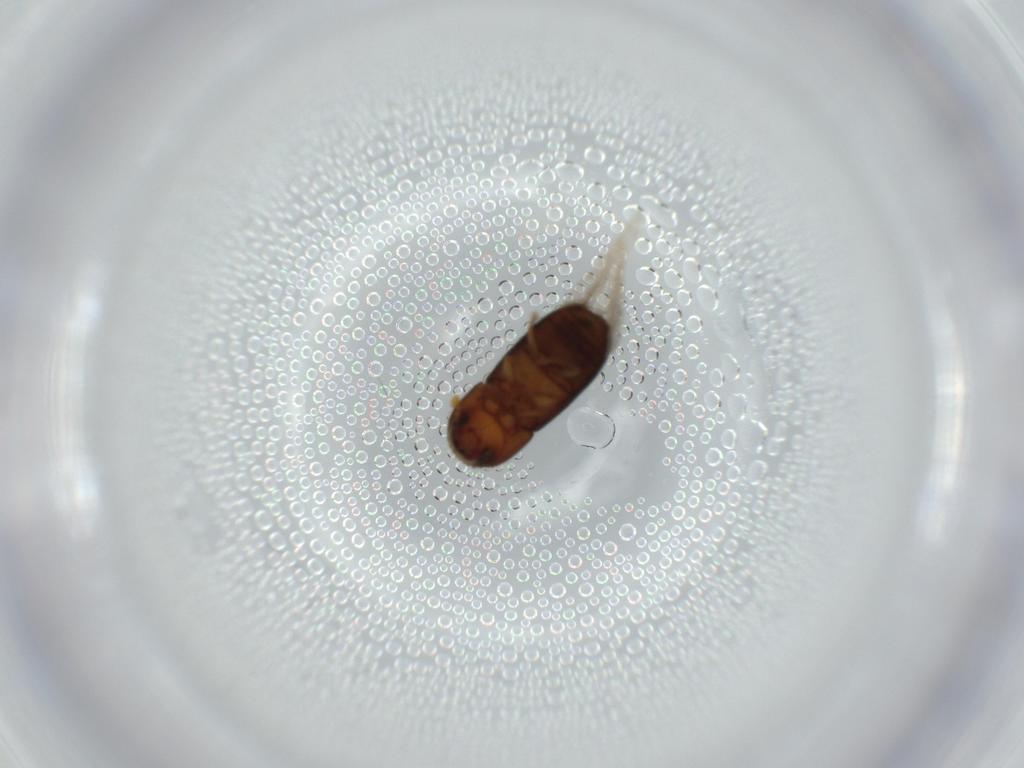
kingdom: Animalia
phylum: Arthropoda
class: Insecta
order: Coleoptera
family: Curculionidae
